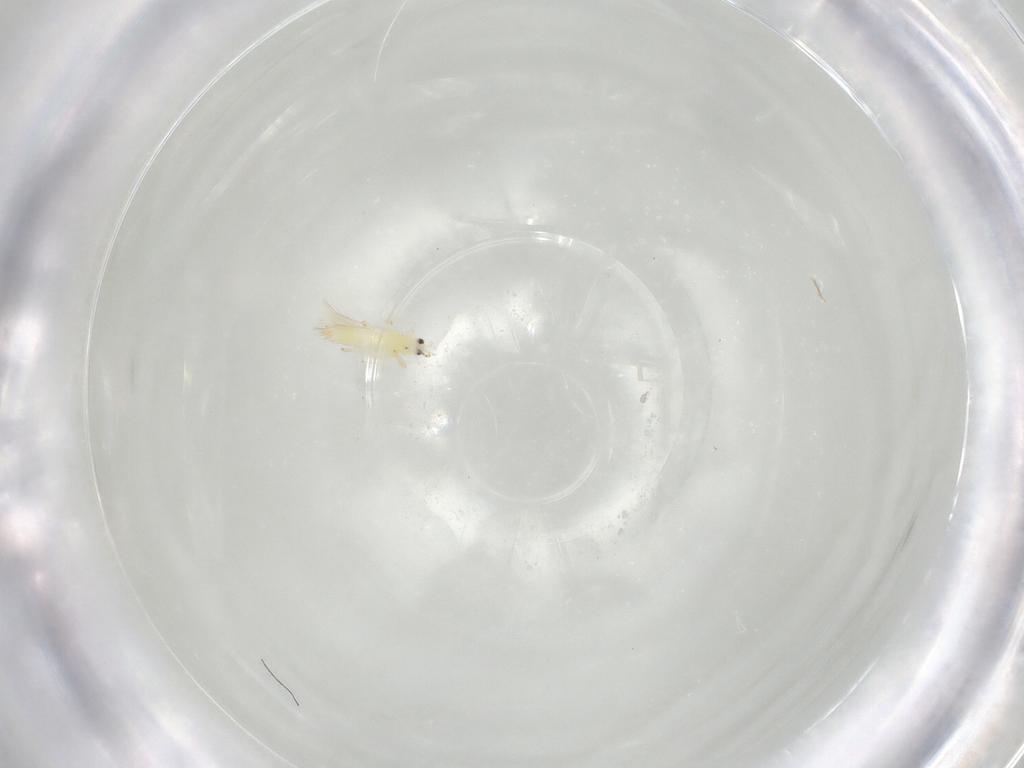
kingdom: Animalia
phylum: Arthropoda
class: Insecta
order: Thysanoptera
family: Thripidae
